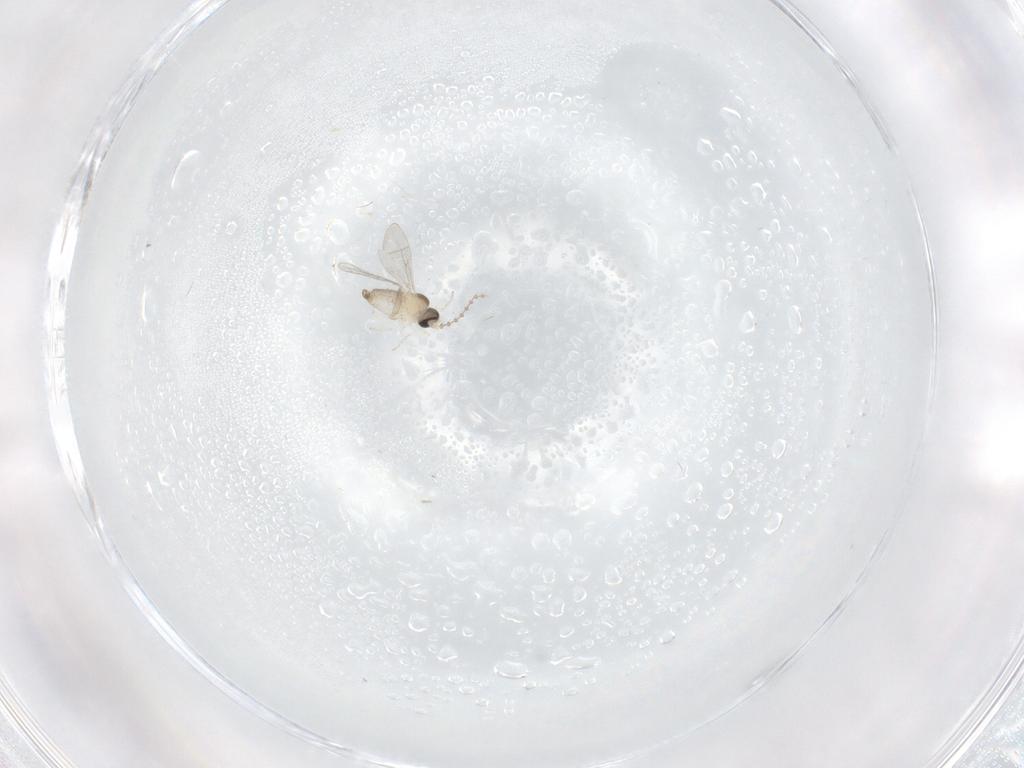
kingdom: Animalia
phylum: Arthropoda
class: Insecta
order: Diptera
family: Cecidomyiidae
